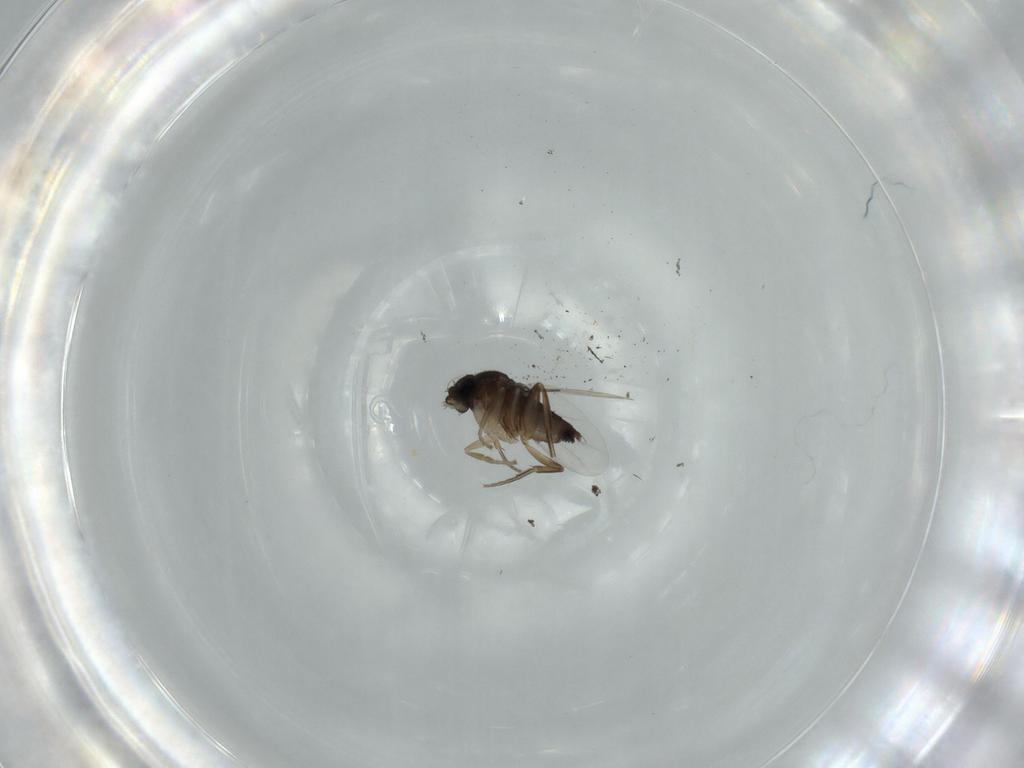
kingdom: Animalia
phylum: Arthropoda
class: Insecta
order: Diptera
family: Phoridae
